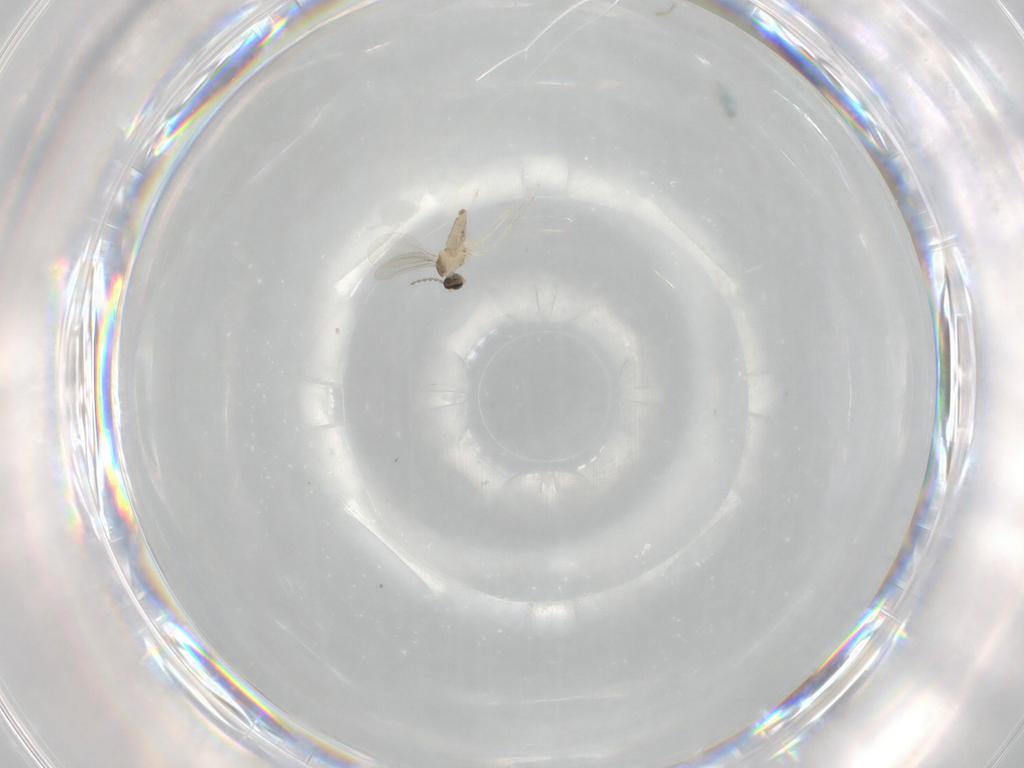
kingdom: Animalia
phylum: Arthropoda
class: Insecta
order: Diptera
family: Cecidomyiidae
